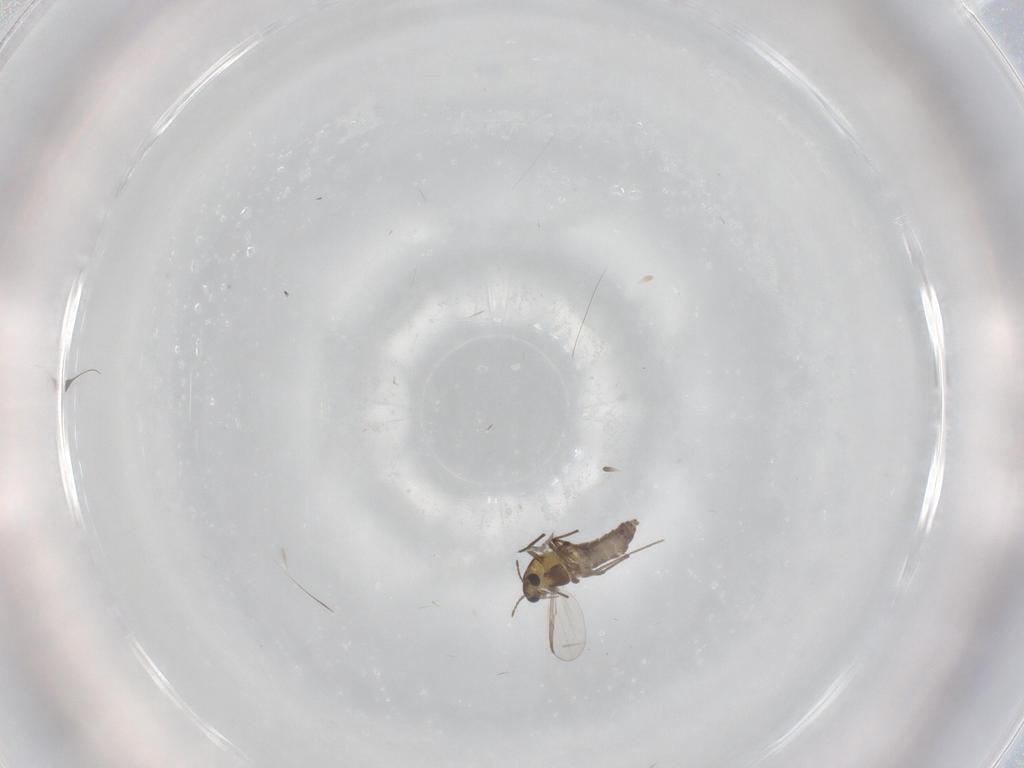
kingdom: Animalia
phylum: Arthropoda
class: Insecta
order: Diptera
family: Chironomidae
